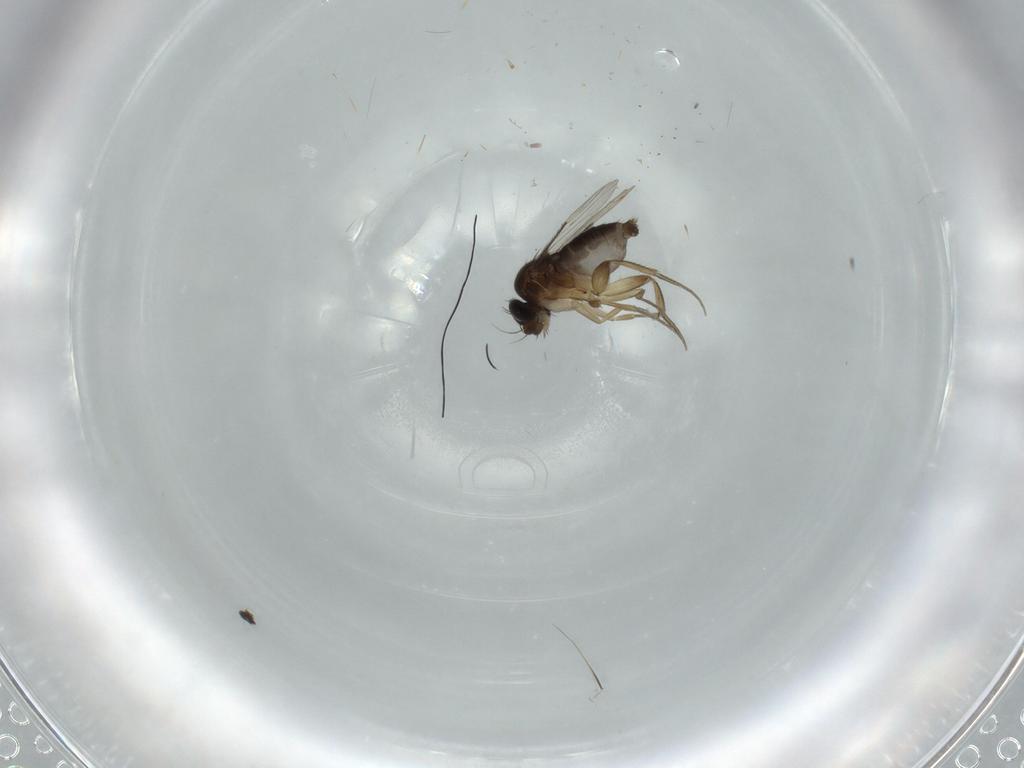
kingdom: Animalia
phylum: Arthropoda
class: Insecta
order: Diptera
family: Phoridae
